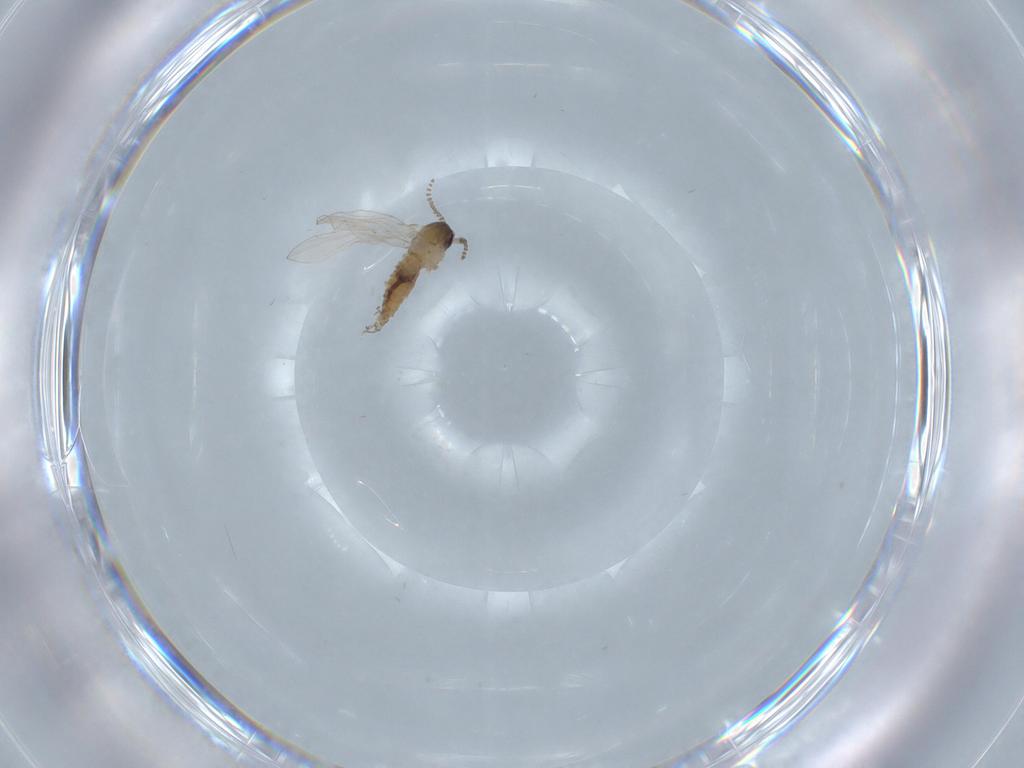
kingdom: Animalia
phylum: Arthropoda
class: Insecta
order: Diptera
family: Psychodidae
